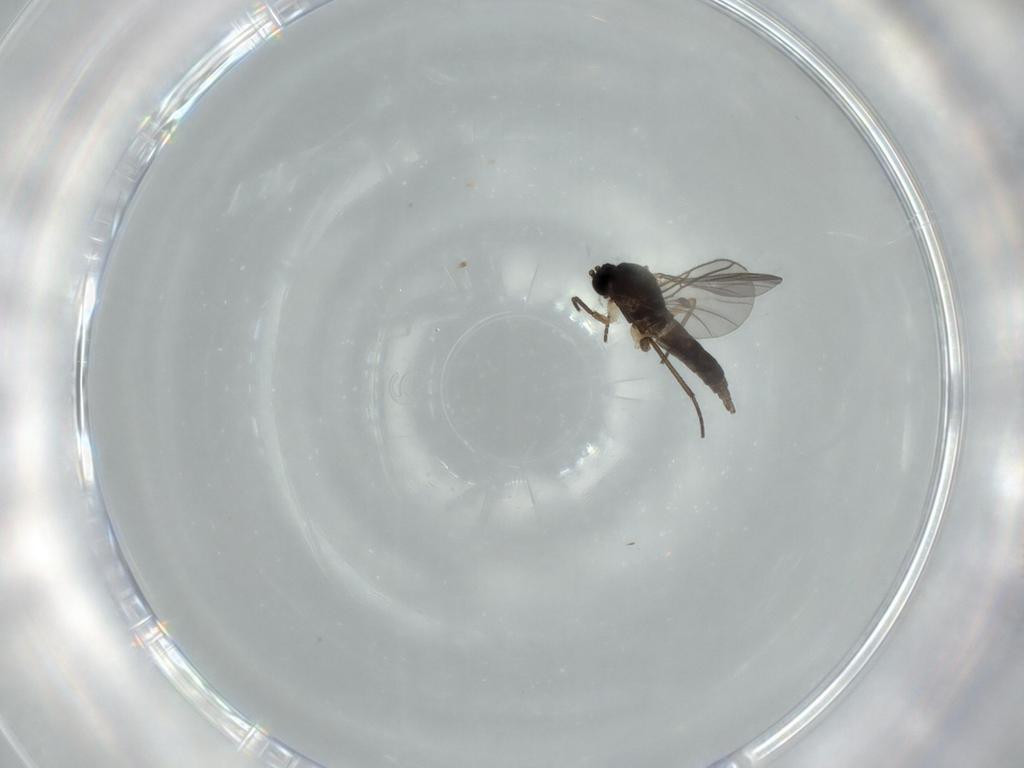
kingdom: Animalia
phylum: Arthropoda
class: Insecta
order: Diptera
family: Sciaridae
